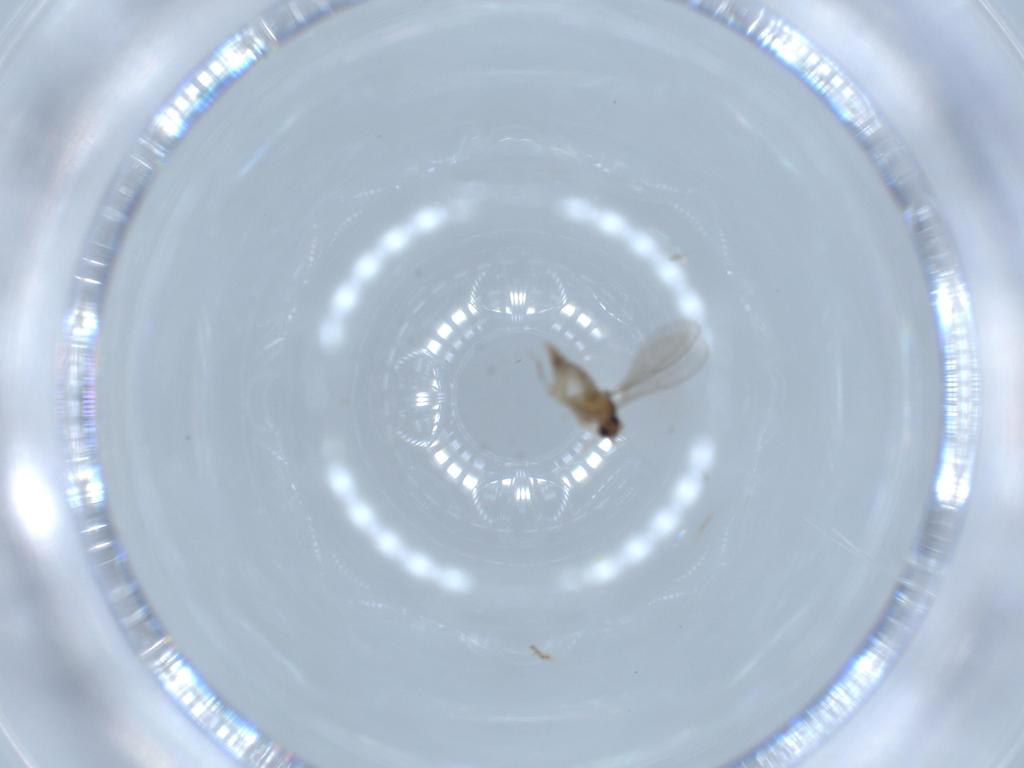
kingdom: Animalia
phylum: Arthropoda
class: Insecta
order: Diptera
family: Cecidomyiidae
